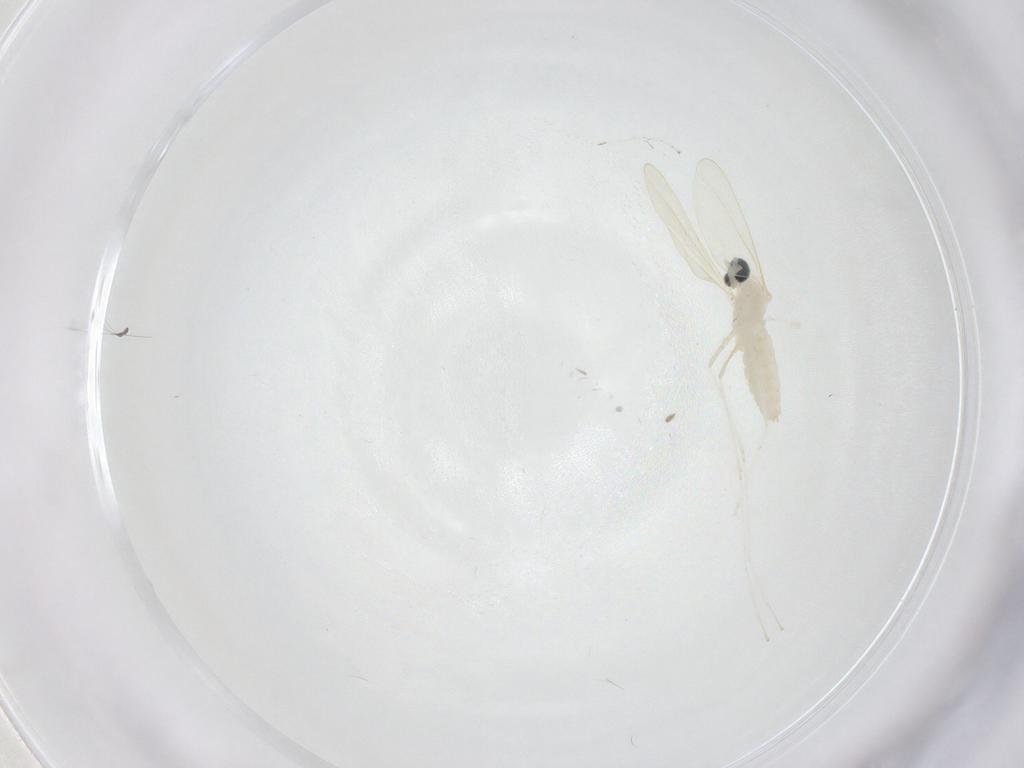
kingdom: Animalia
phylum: Arthropoda
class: Insecta
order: Diptera
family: Cecidomyiidae
